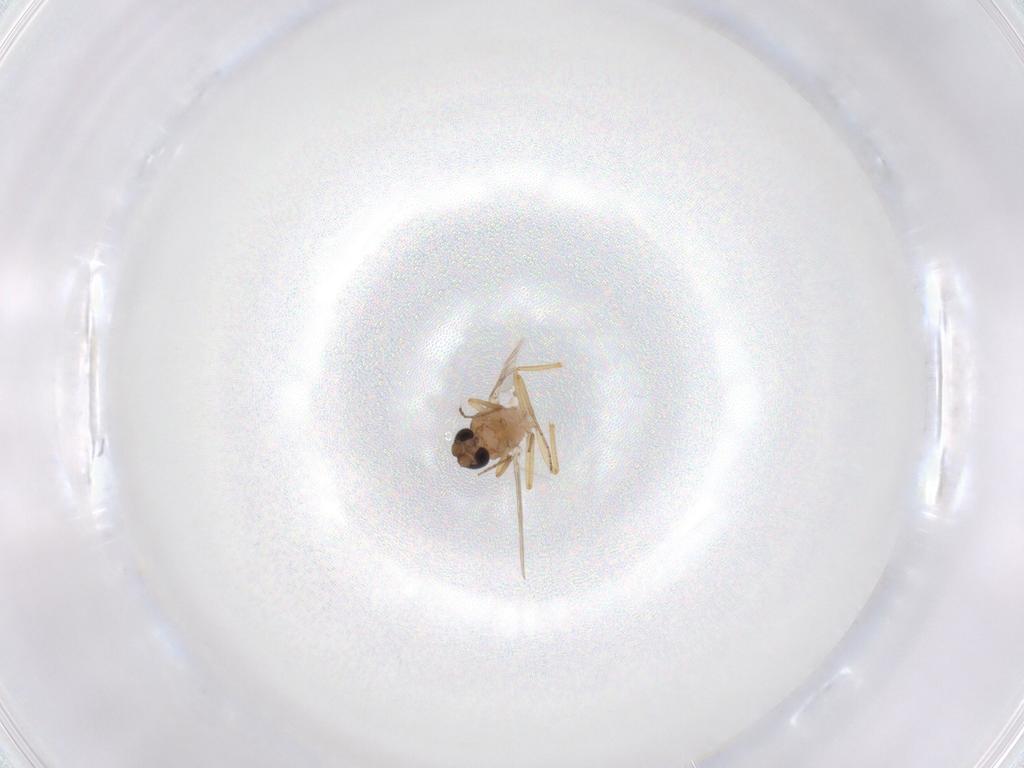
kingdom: Animalia
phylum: Arthropoda
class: Insecta
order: Diptera
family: Ceratopogonidae
